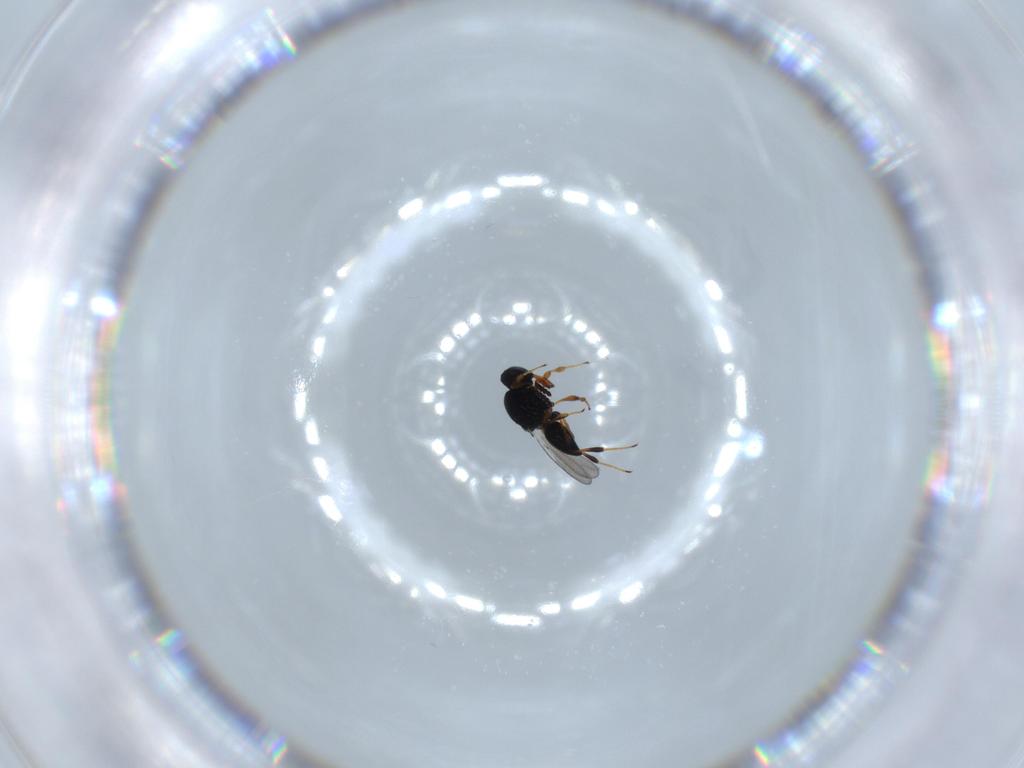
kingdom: Animalia
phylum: Arthropoda
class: Insecta
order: Hymenoptera
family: Platygastridae
